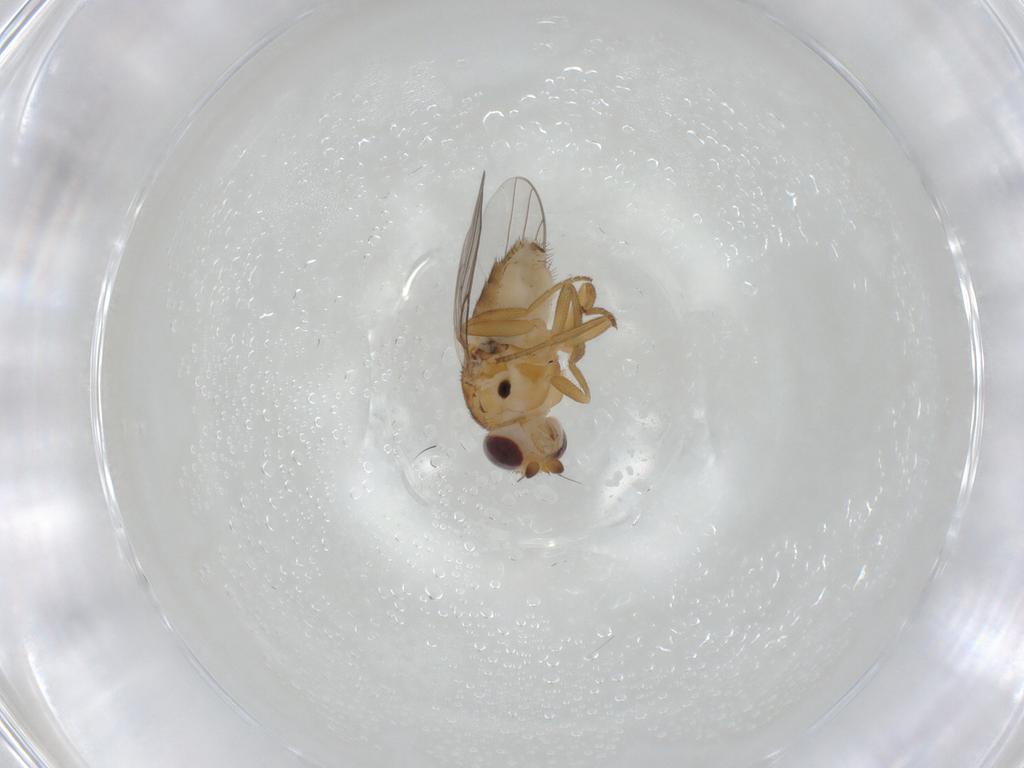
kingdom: Animalia
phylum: Arthropoda
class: Insecta
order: Diptera
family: Chloropidae
